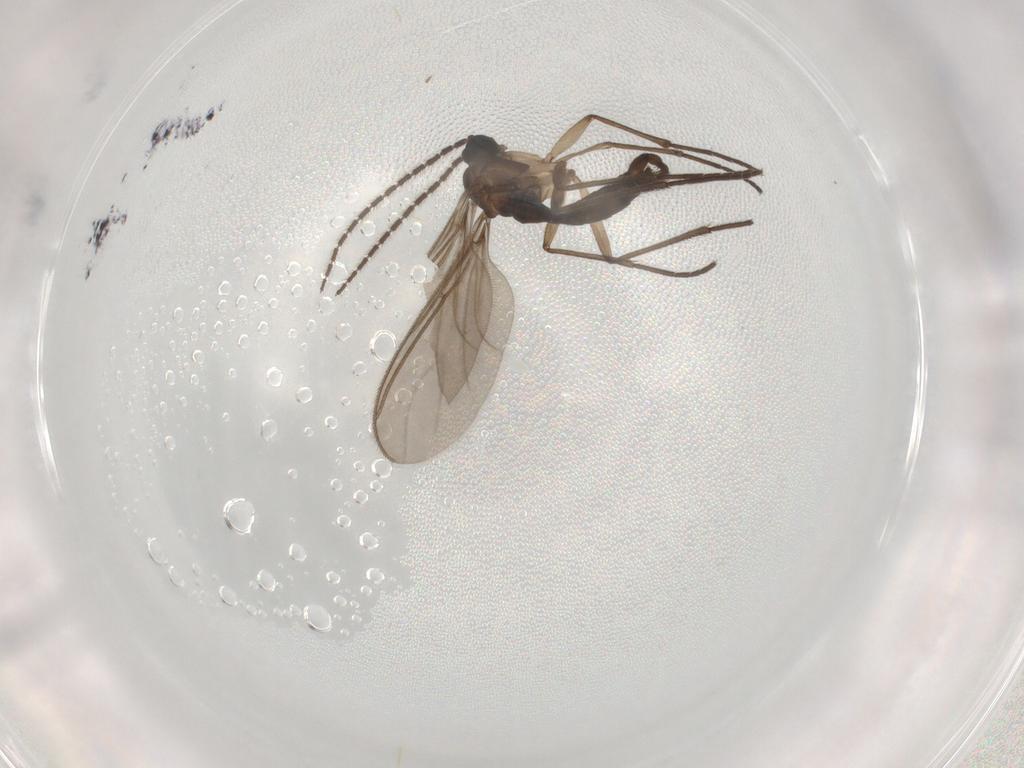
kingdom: Animalia
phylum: Arthropoda
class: Insecta
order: Diptera
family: Sciaridae
